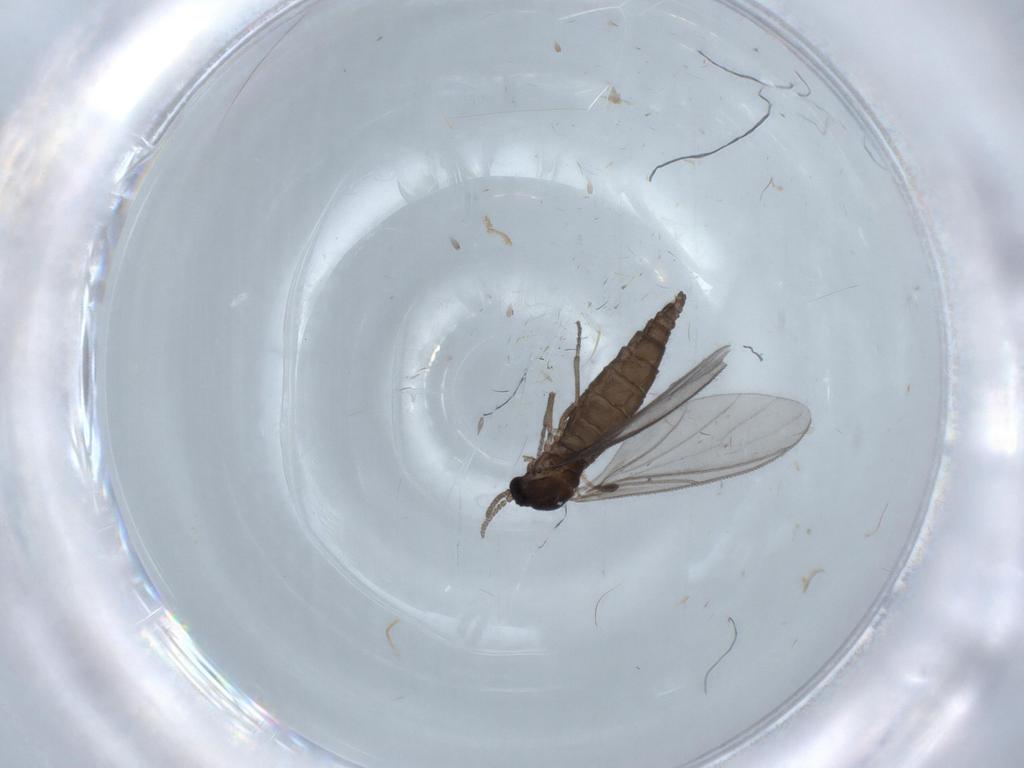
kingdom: Animalia
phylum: Arthropoda
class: Insecta
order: Diptera
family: Sciaridae
